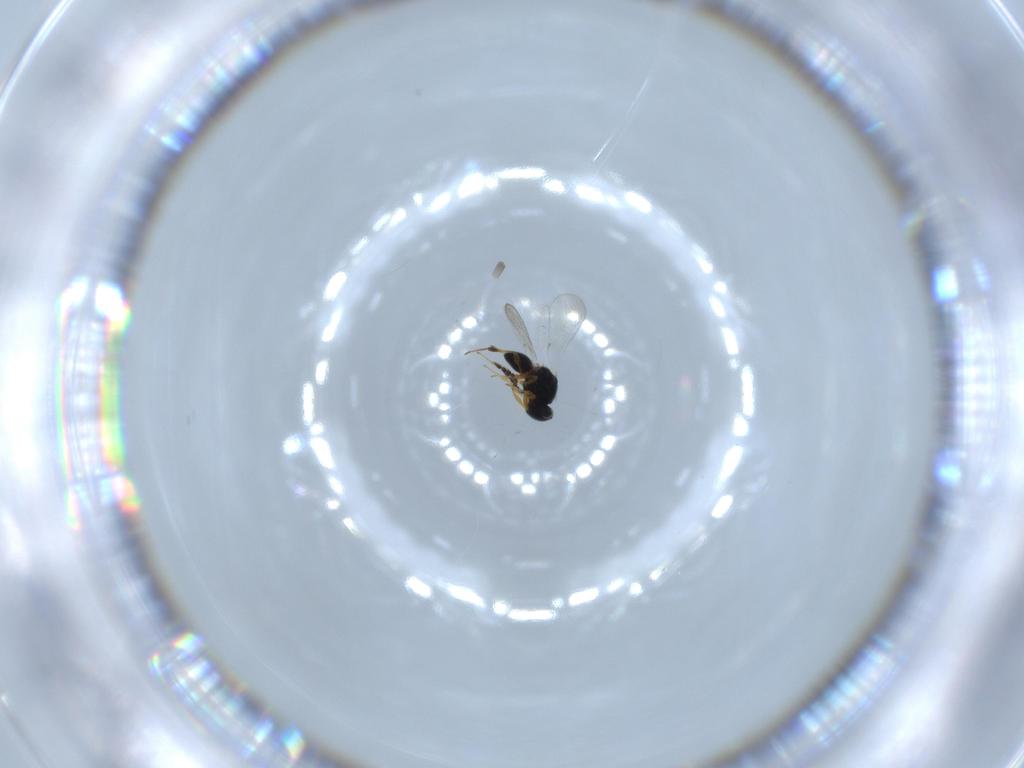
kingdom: Animalia
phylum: Arthropoda
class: Insecta
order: Hymenoptera
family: Platygastridae
